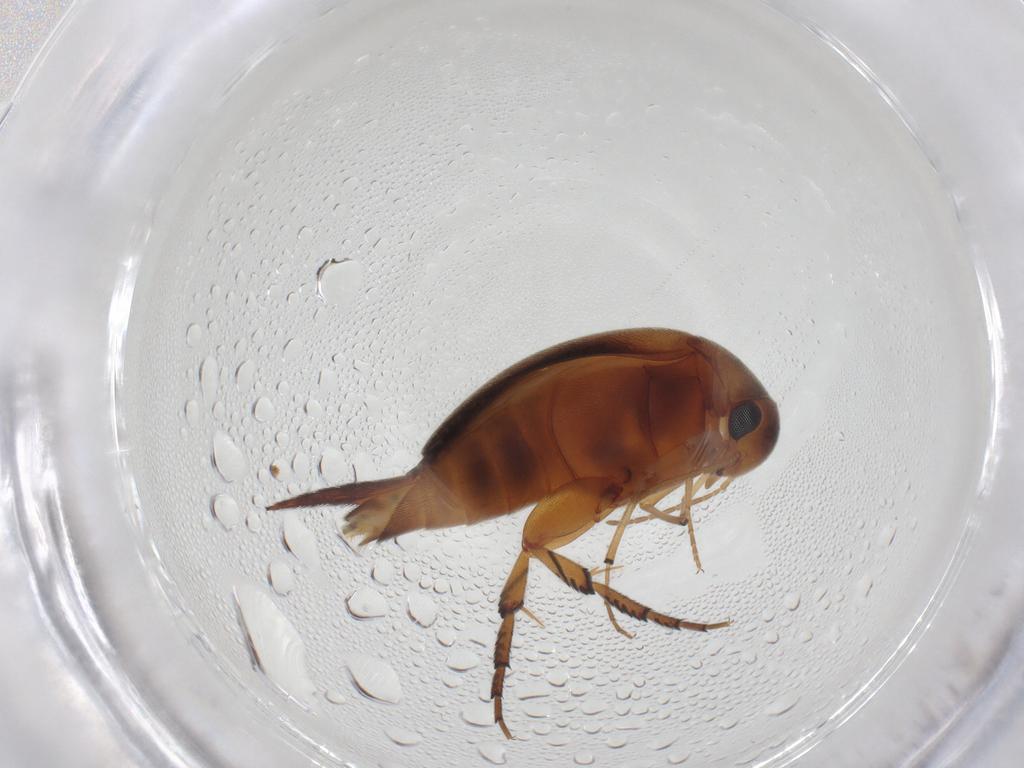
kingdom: Animalia
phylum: Arthropoda
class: Insecta
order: Coleoptera
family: Mordellidae
